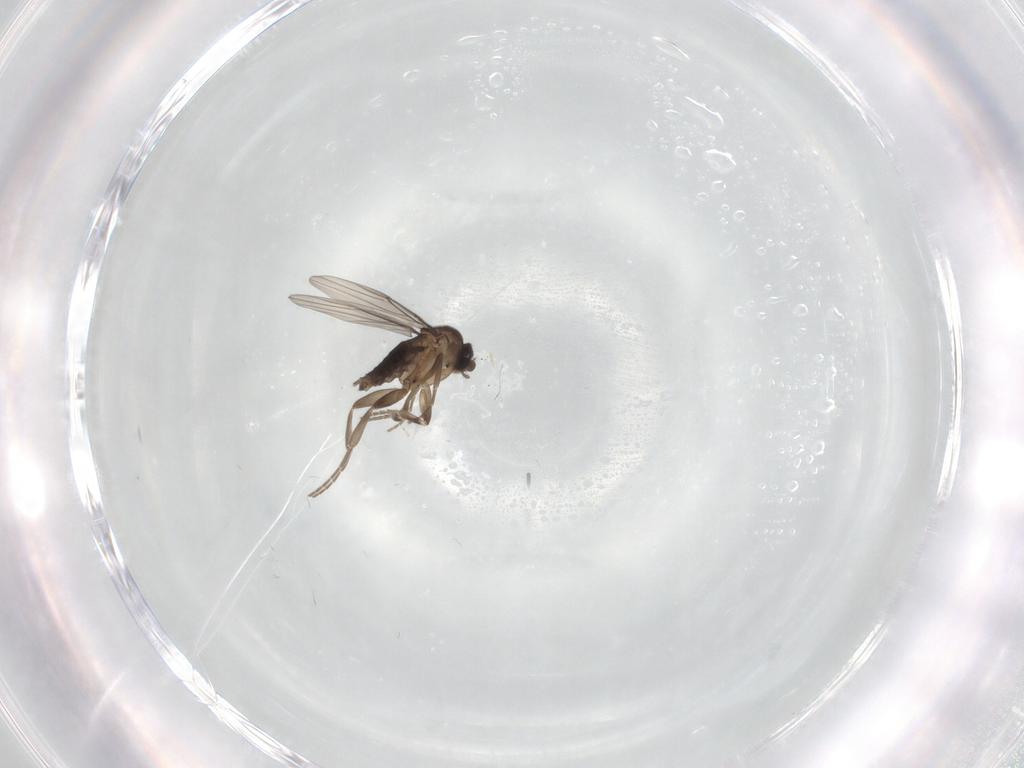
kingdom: Animalia
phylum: Arthropoda
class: Insecta
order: Diptera
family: Phoridae
